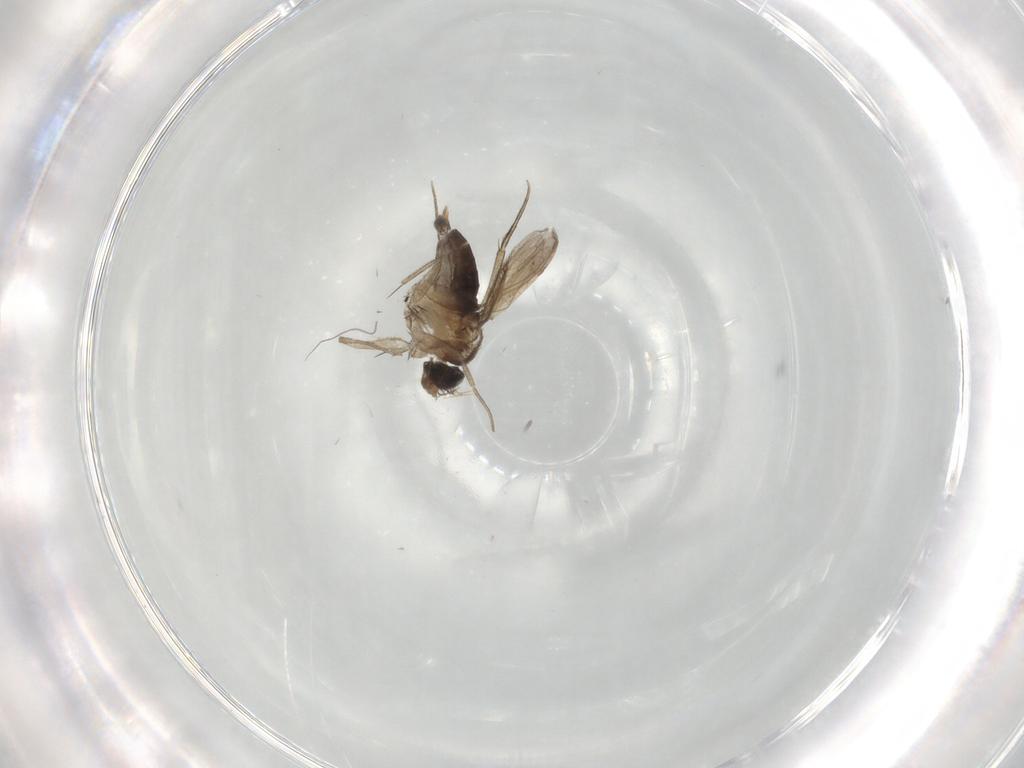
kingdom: Animalia
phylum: Arthropoda
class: Insecta
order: Diptera
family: Phoridae
